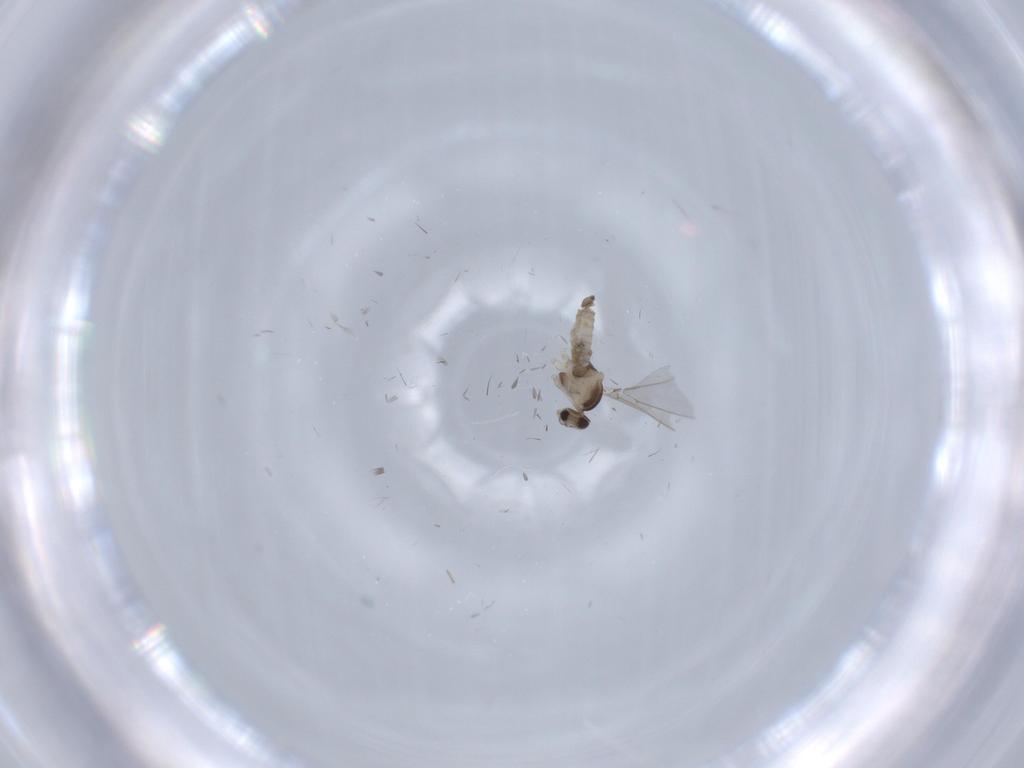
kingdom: Animalia
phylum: Arthropoda
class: Insecta
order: Diptera
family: Cecidomyiidae
